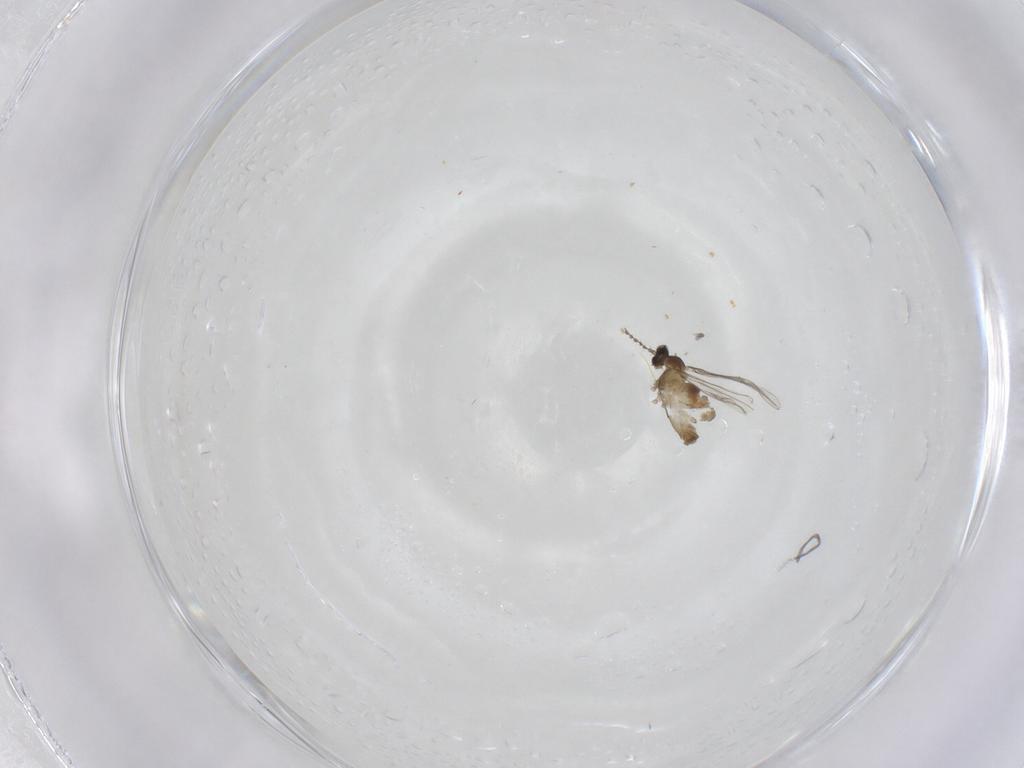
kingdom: Animalia
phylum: Arthropoda
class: Insecta
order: Diptera
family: Cecidomyiidae
